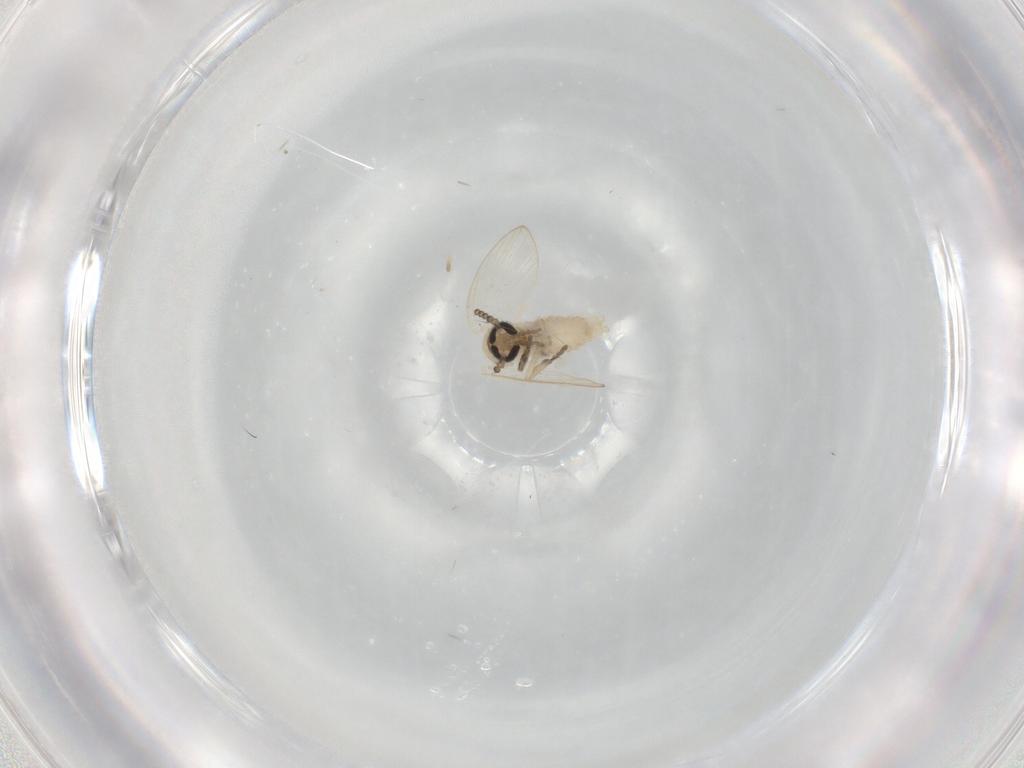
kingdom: Animalia
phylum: Arthropoda
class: Insecta
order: Diptera
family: Psychodidae
